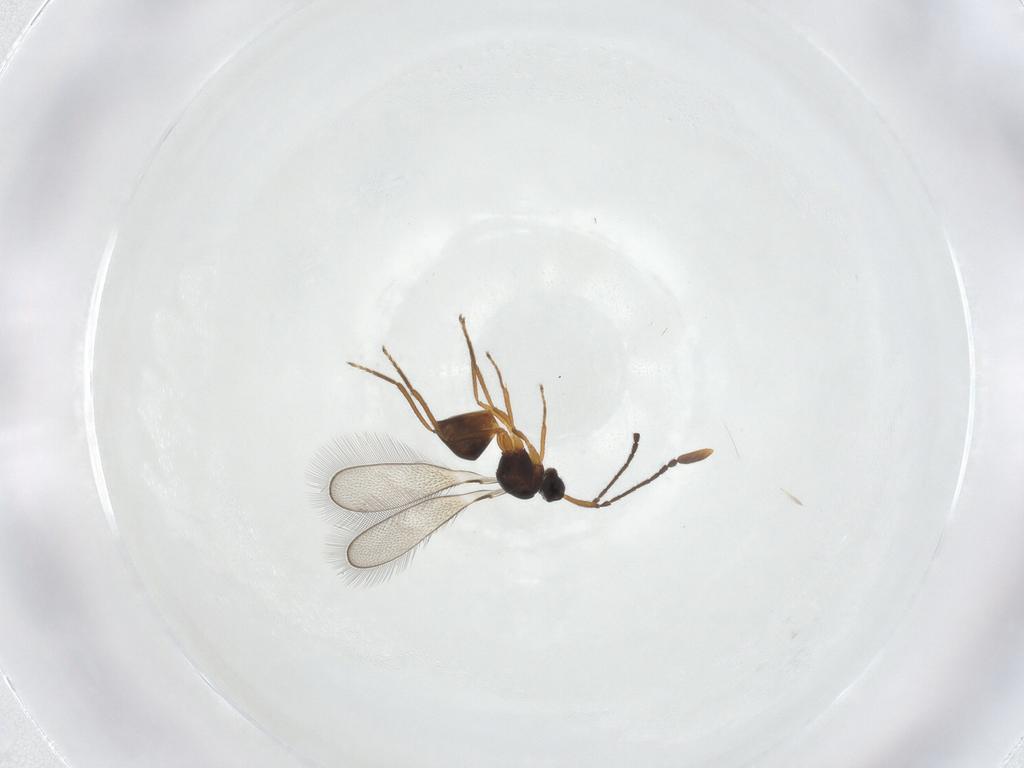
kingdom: Animalia
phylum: Arthropoda
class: Insecta
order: Hymenoptera
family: Mymaridae
